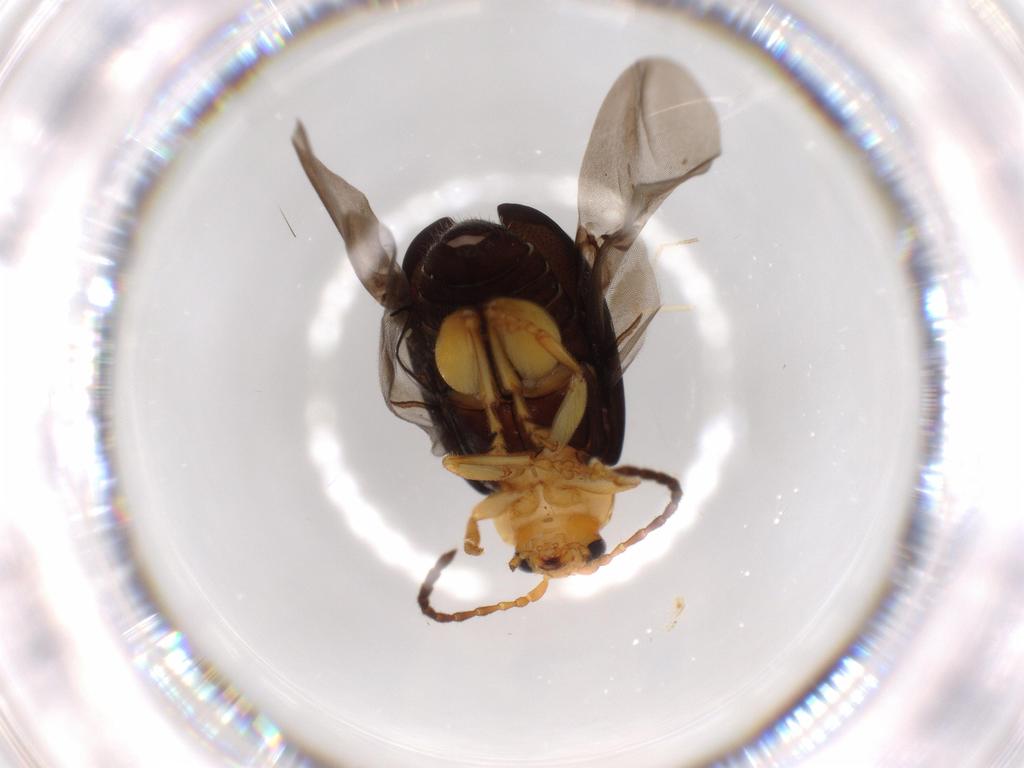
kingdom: Animalia
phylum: Arthropoda
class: Insecta
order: Coleoptera
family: Chrysomelidae
